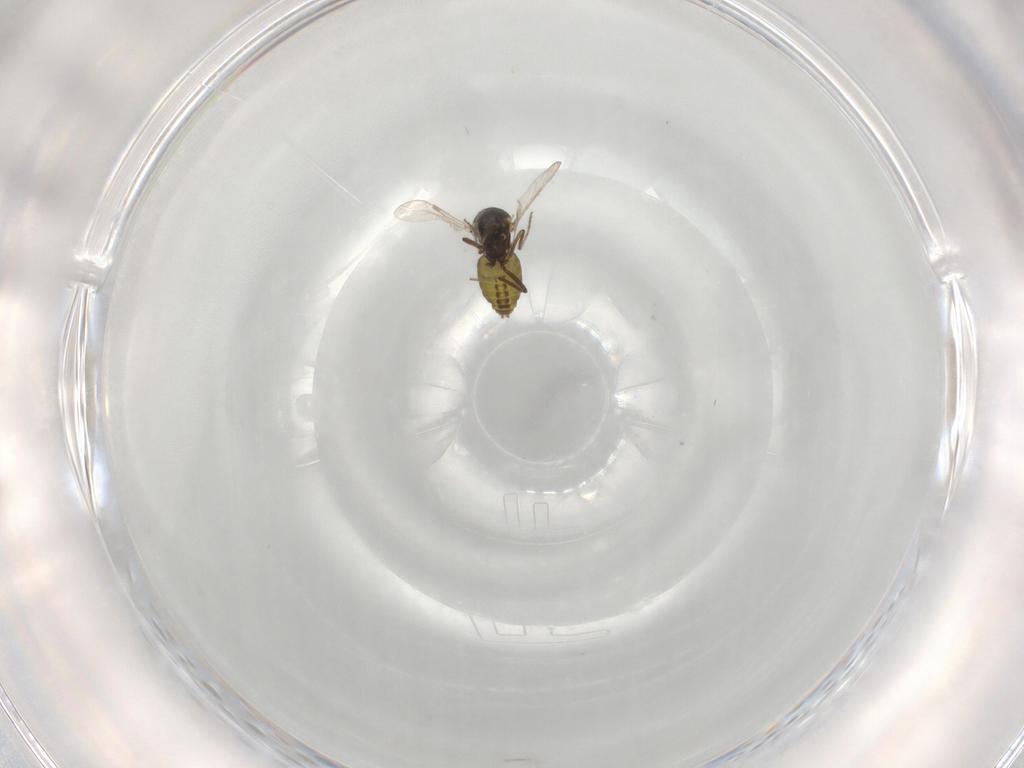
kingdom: Animalia
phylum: Arthropoda
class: Insecta
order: Diptera
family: Ceratopogonidae
